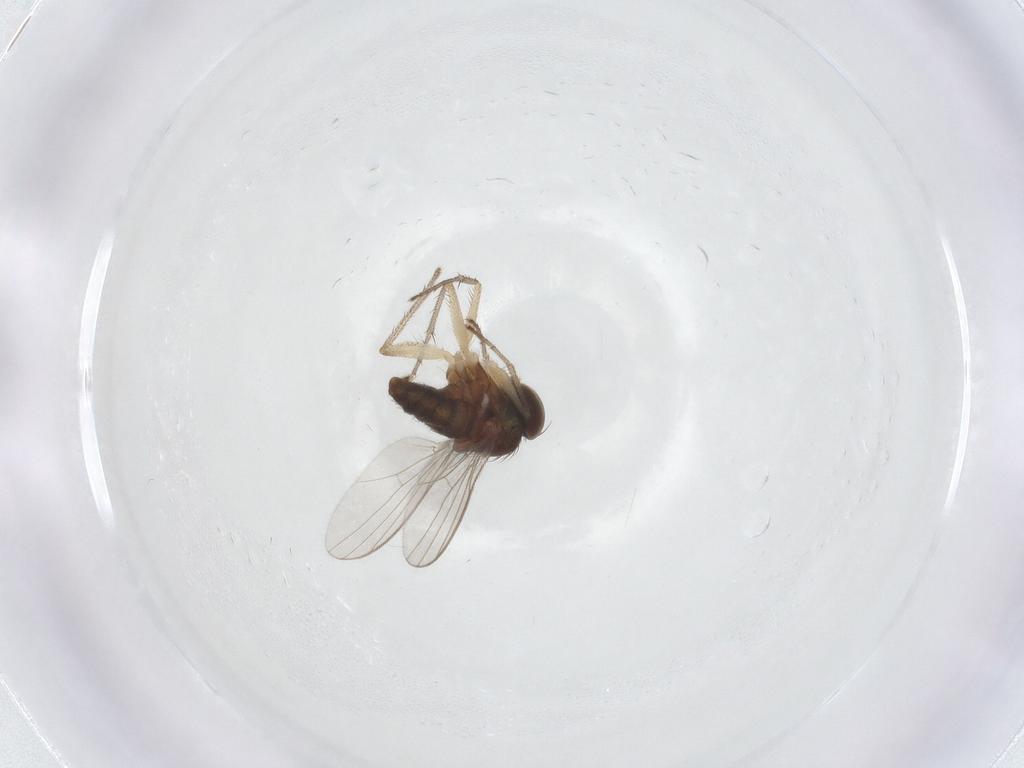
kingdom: Animalia
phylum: Arthropoda
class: Insecta
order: Diptera
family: Dolichopodidae
